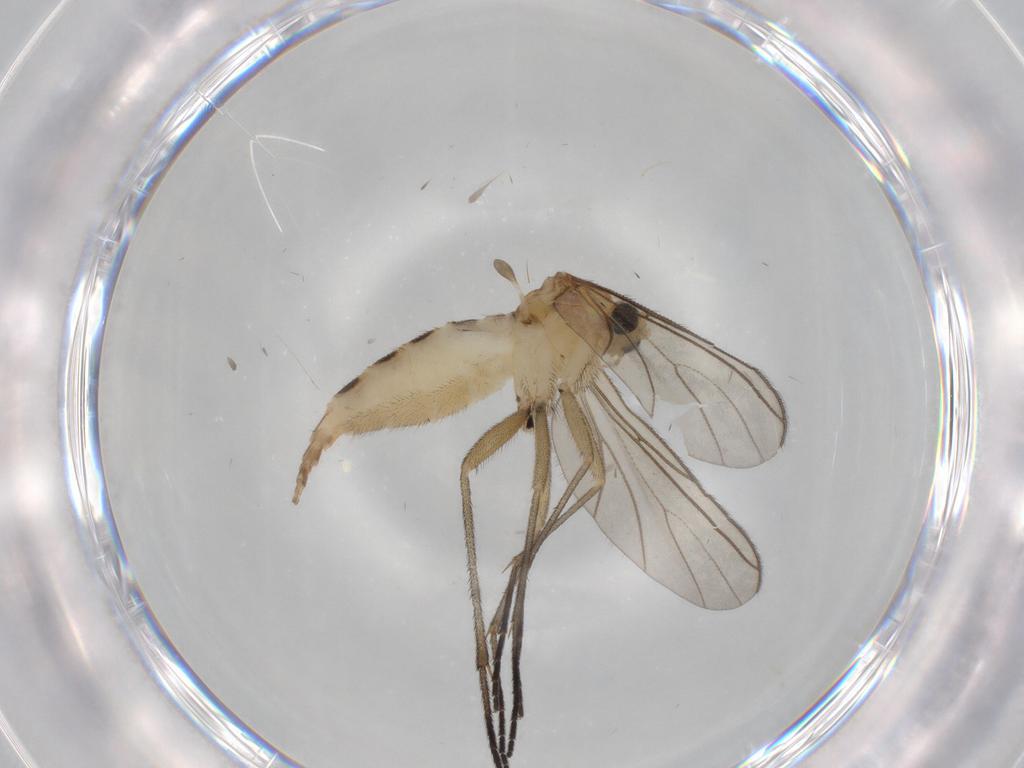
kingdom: Animalia
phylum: Arthropoda
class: Insecta
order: Diptera
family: Sciaridae
